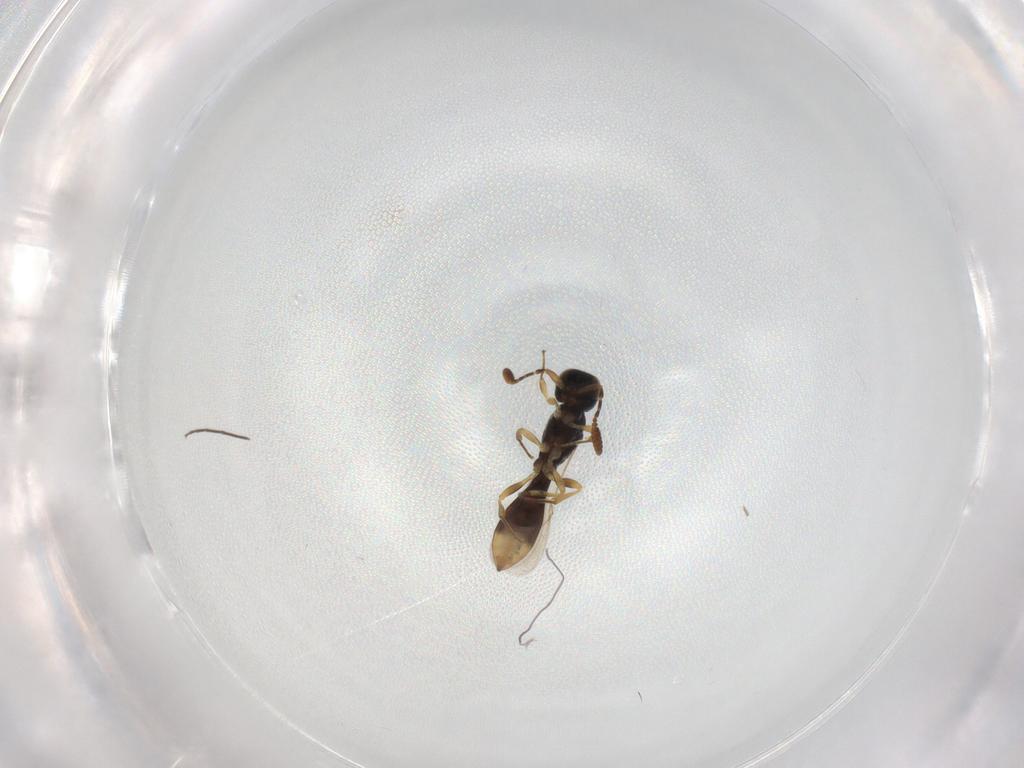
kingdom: Animalia
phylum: Arthropoda
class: Insecta
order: Hymenoptera
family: Scelionidae
